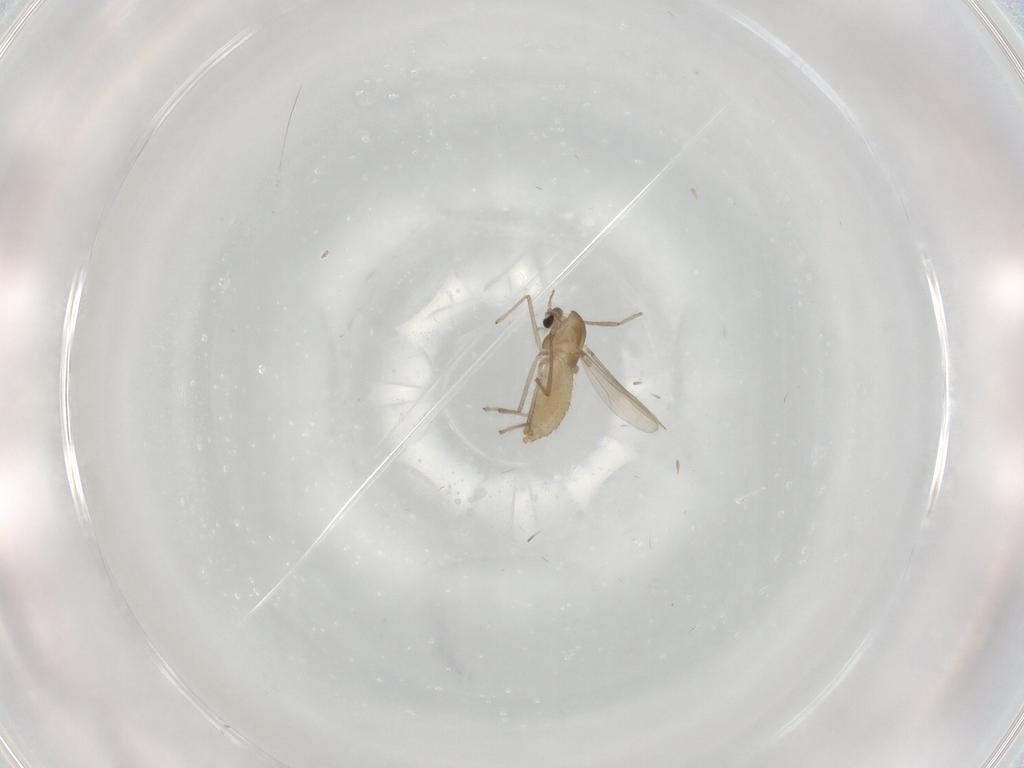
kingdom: Animalia
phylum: Arthropoda
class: Insecta
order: Diptera
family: Chironomidae
